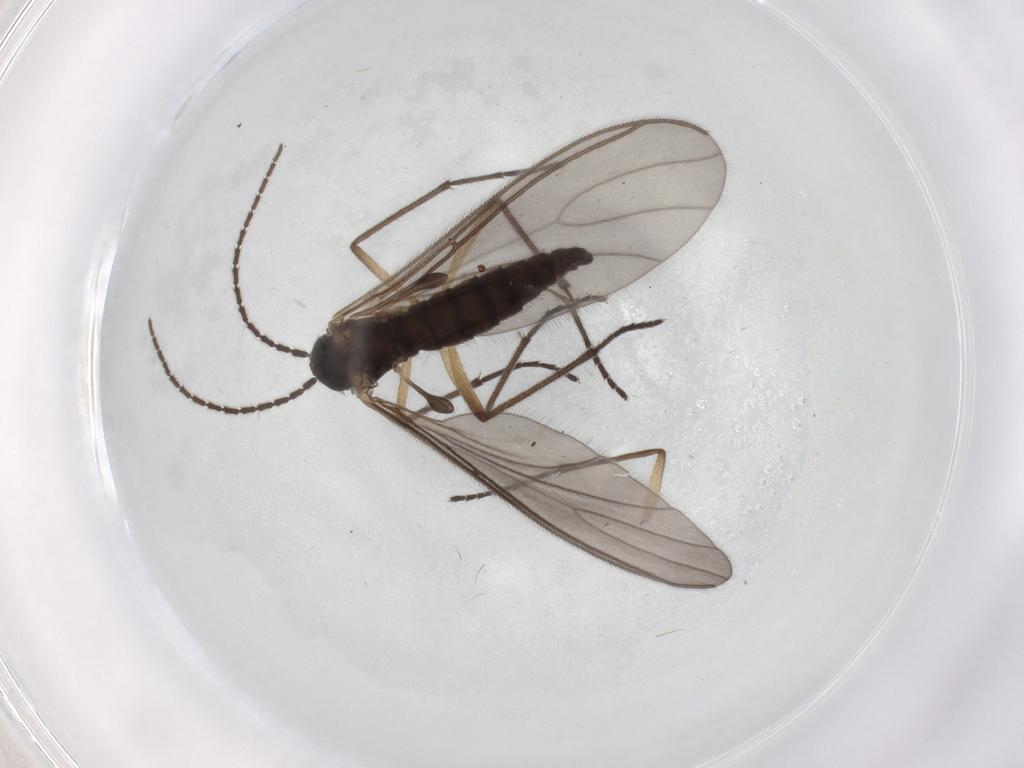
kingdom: Animalia
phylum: Arthropoda
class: Insecta
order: Diptera
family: Sciaridae
